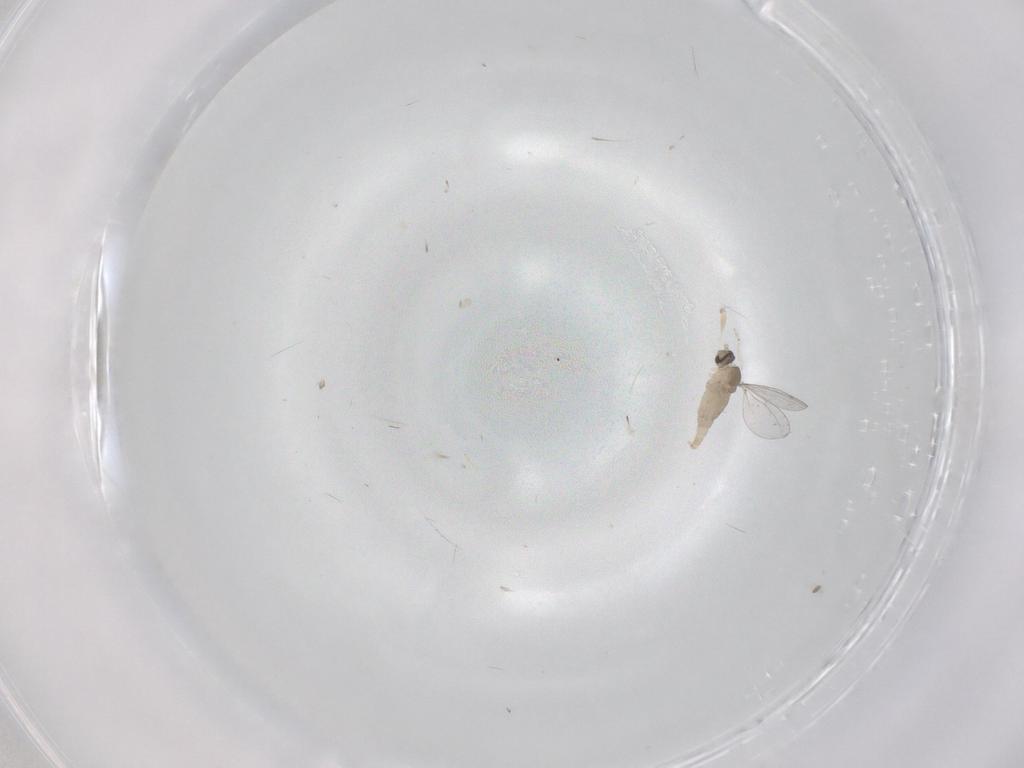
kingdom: Animalia
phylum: Arthropoda
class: Insecta
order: Diptera
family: Cecidomyiidae
